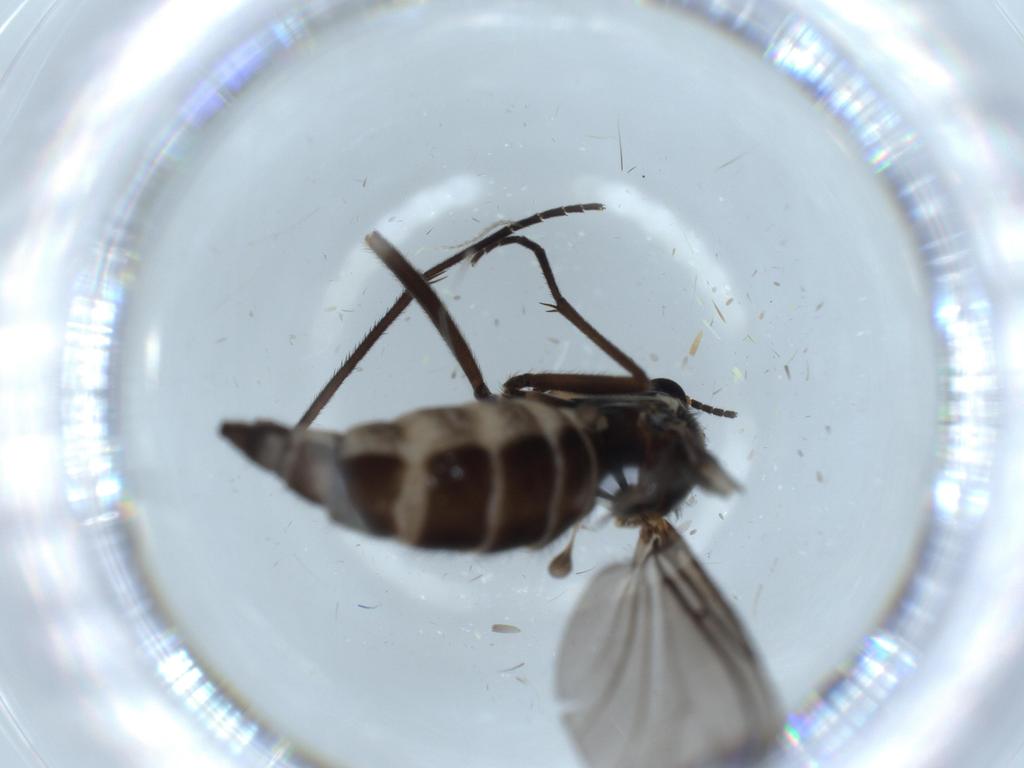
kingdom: Animalia
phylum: Arthropoda
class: Insecta
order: Diptera
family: Sciaridae
